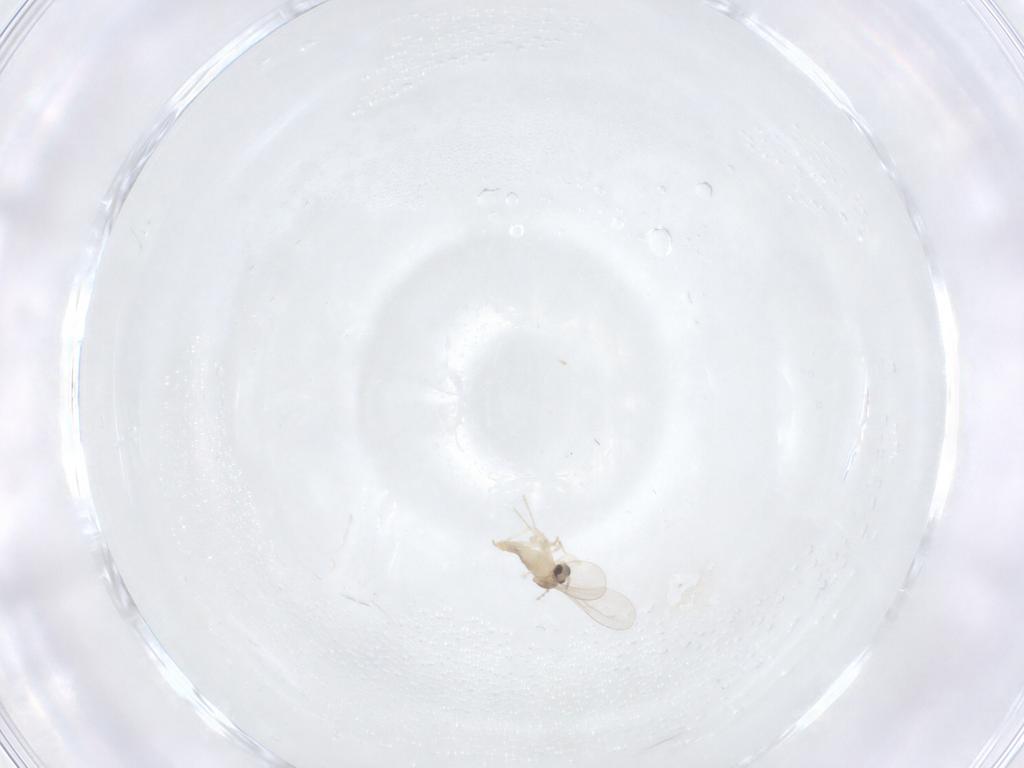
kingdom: Animalia
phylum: Arthropoda
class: Insecta
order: Diptera
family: Cecidomyiidae
